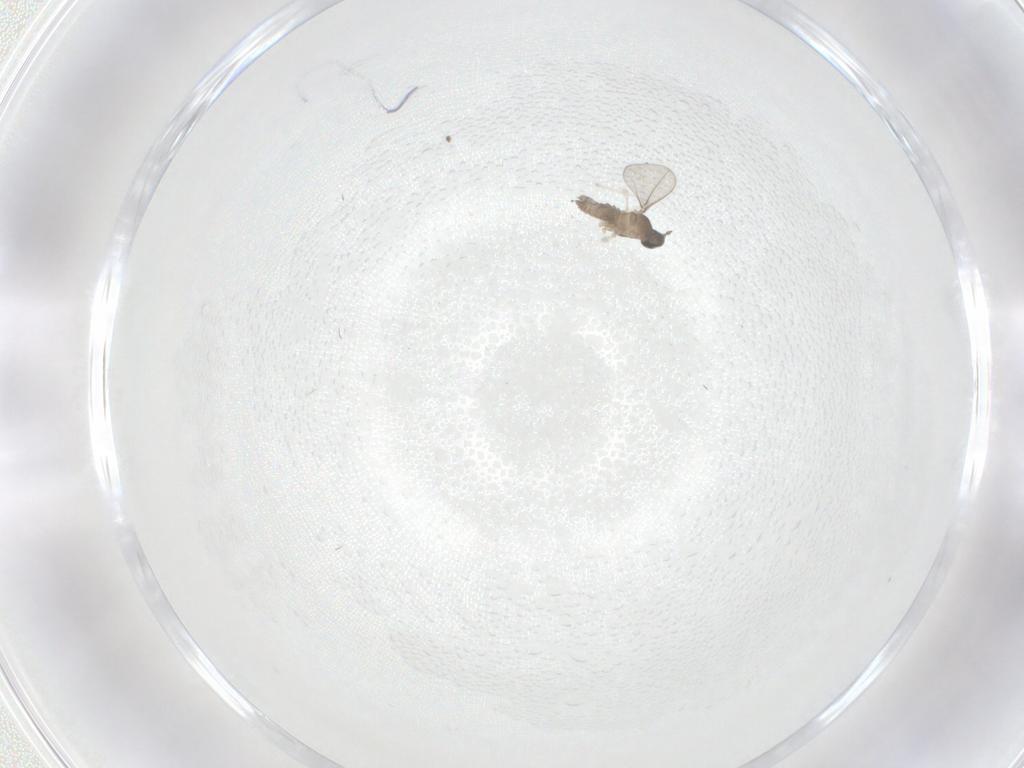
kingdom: Animalia
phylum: Arthropoda
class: Insecta
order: Diptera
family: Cecidomyiidae
